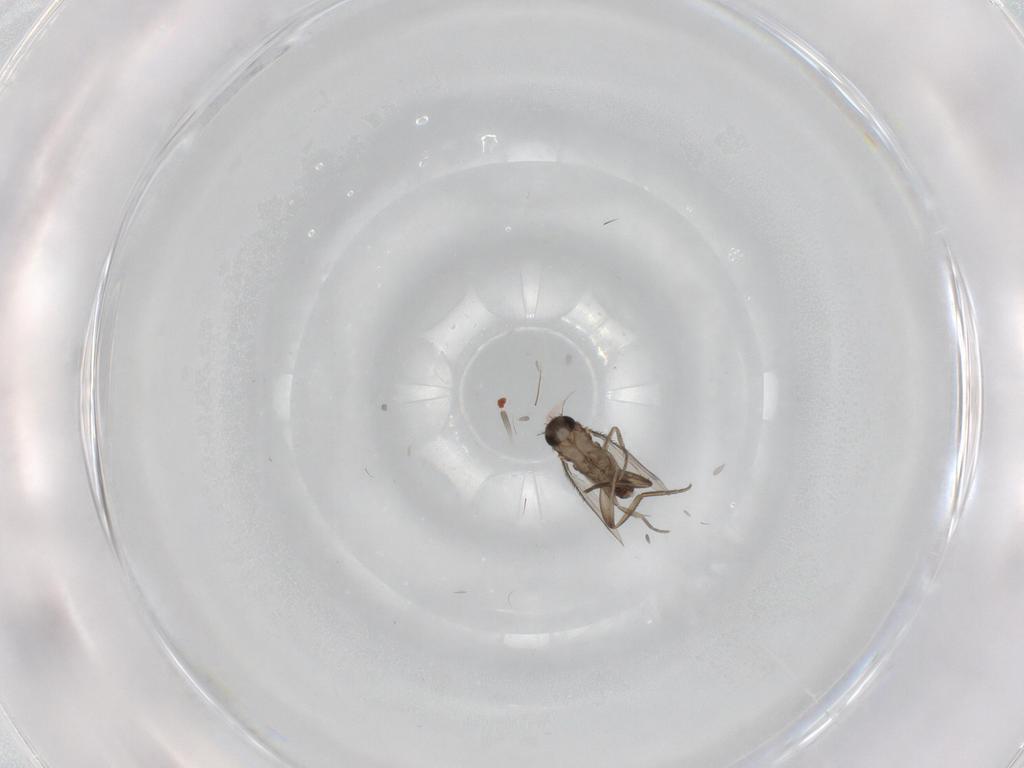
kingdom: Animalia
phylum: Arthropoda
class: Insecta
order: Diptera
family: Phoridae
